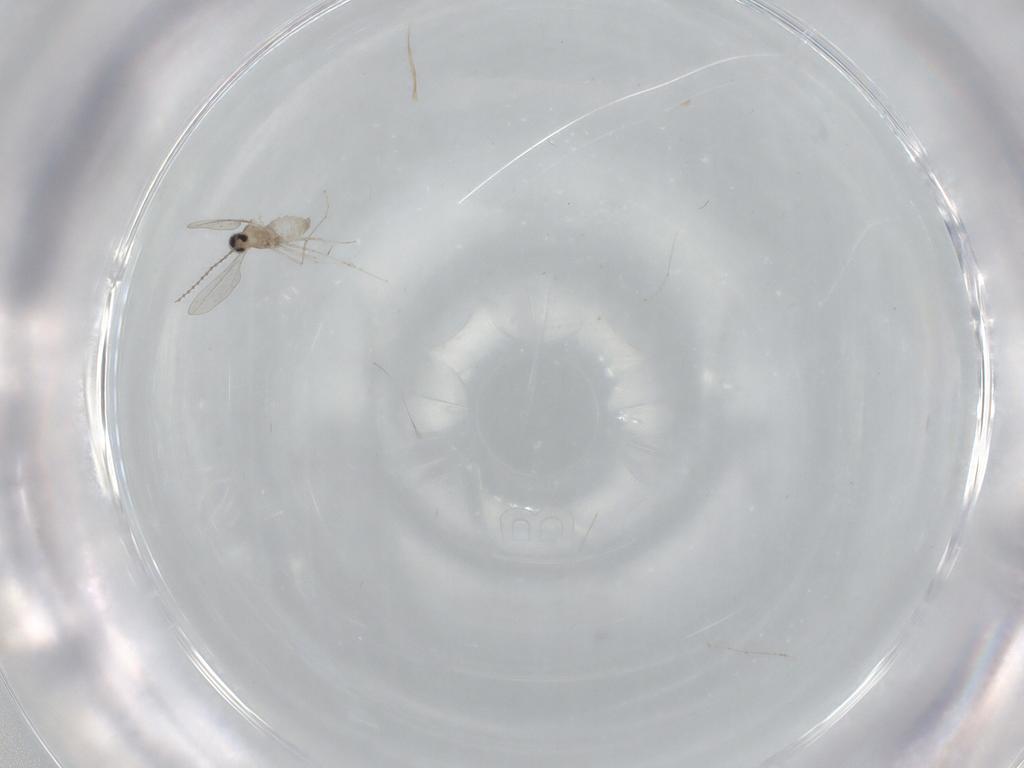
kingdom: Animalia
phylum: Arthropoda
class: Insecta
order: Diptera
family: Cecidomyiidae
